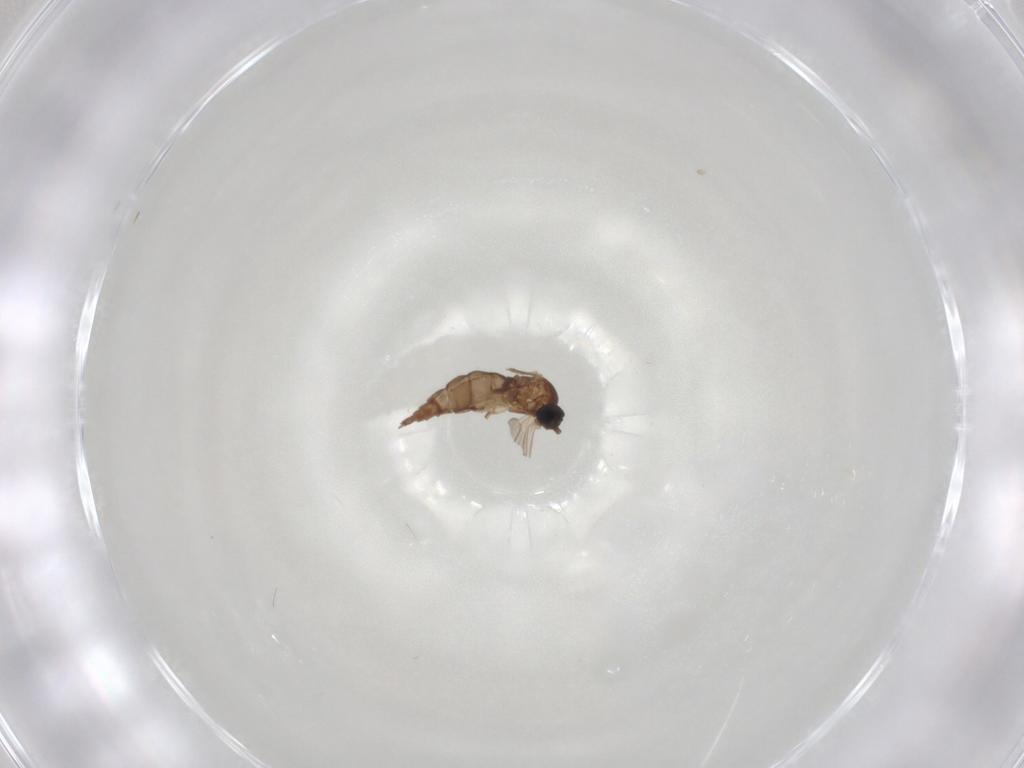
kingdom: Animalia
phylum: Arthropoda
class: Insecta
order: Diptera
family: Sciaridae
